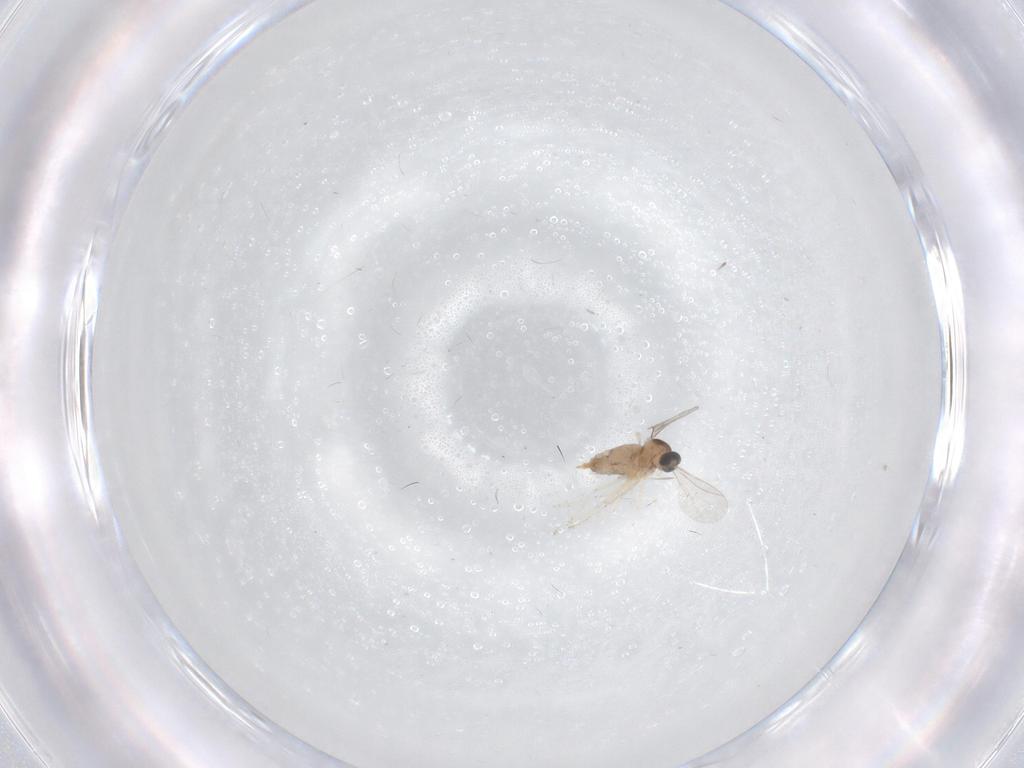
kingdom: Animalia
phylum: Arthropoda
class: Insecta
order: Diptera
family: Cecidomyiidae
